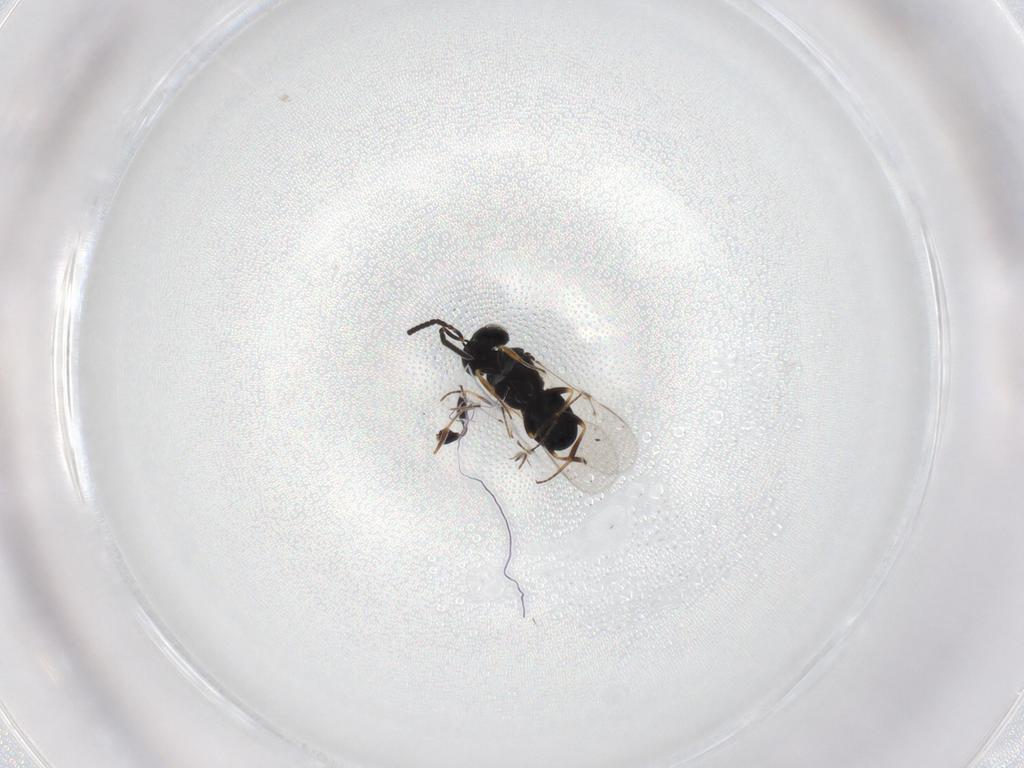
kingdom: Animalia
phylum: Arthropoda
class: Insecta
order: Hymenoptera
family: Scelionidae
